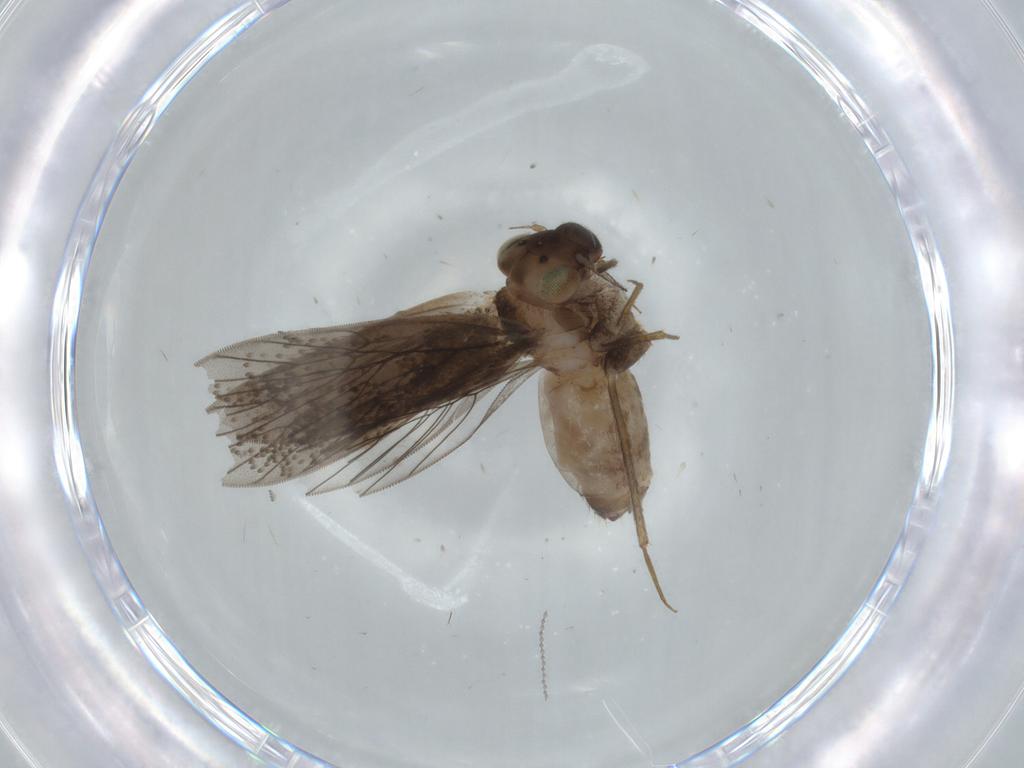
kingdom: Animalia
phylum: Arthropoda
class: Insecta
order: Psocodea
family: Lepidopsocidae
